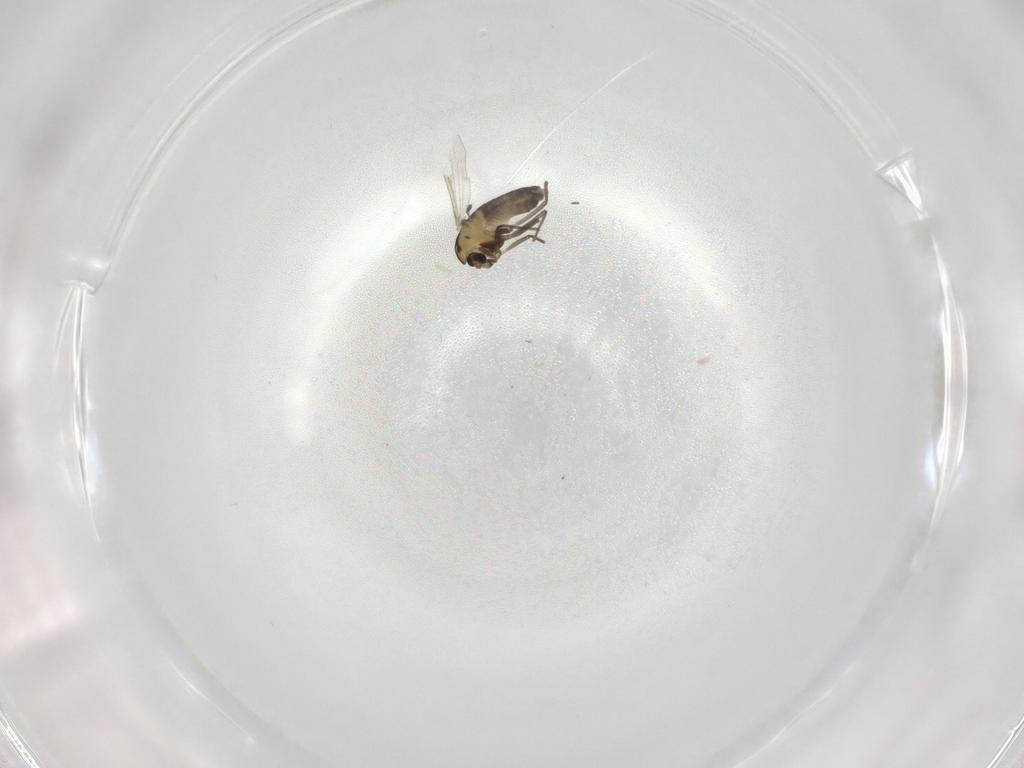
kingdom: Animalia
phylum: Arthropoda
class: Insecta
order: Diptera
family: Chironomidae
